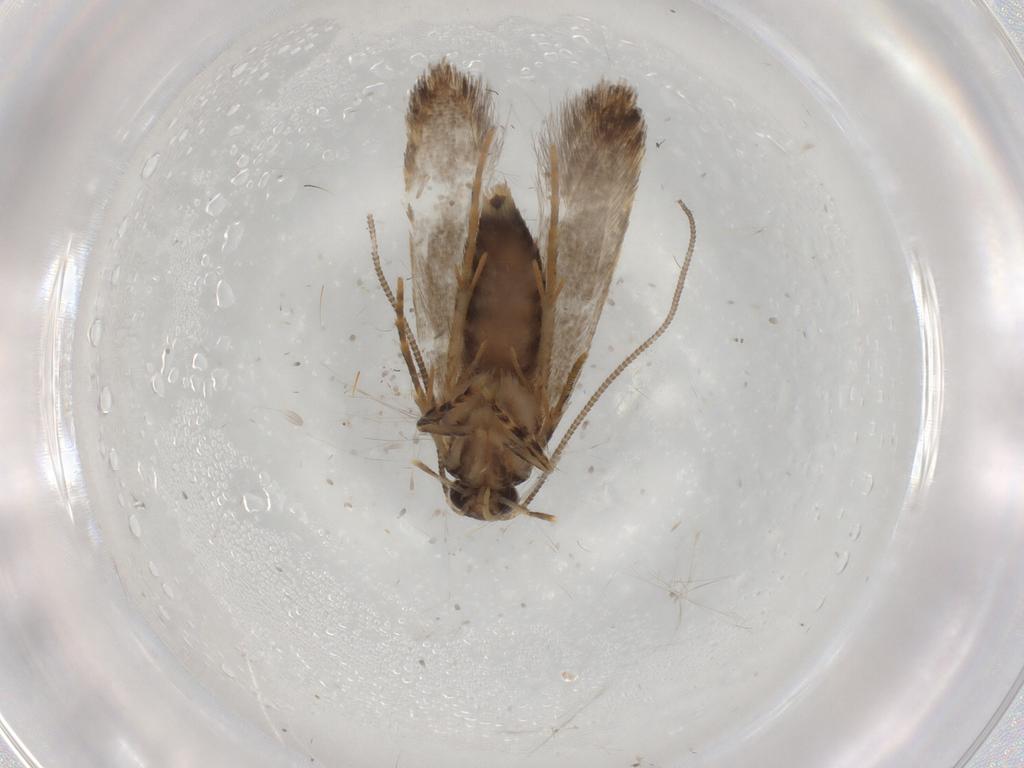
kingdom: Animalia
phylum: Arthropoda
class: Insecta
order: Lepidoptera
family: Tineidae
